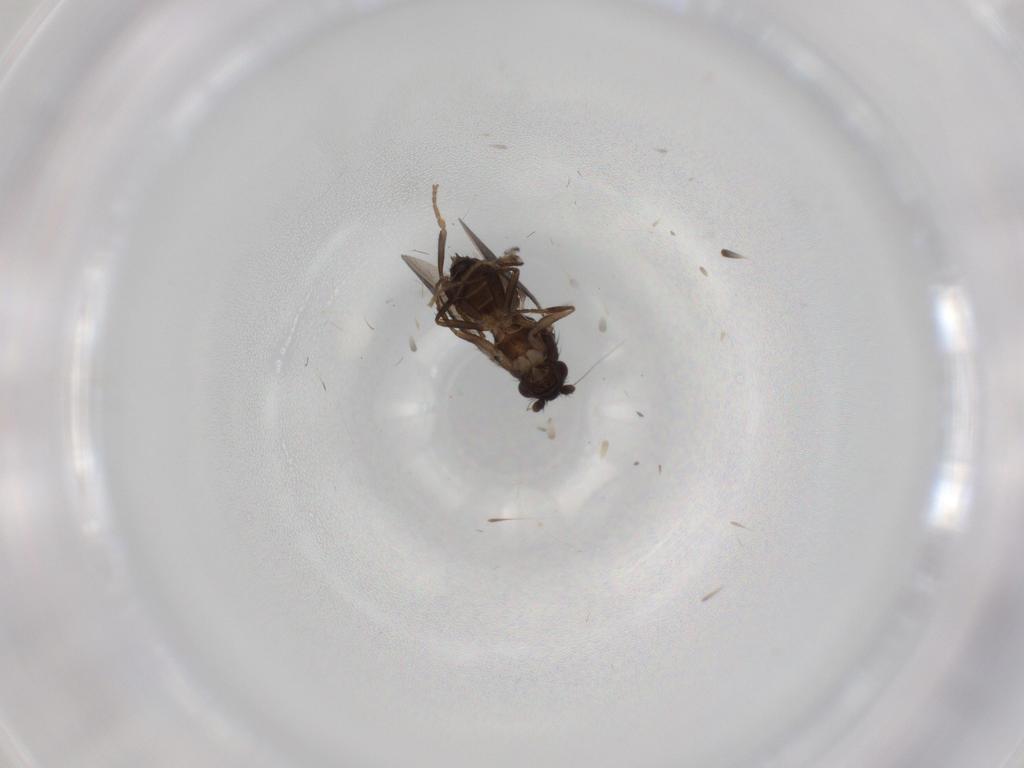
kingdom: Animalia
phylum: Arthropoda
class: Insecta
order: Diptera
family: Sphaeroceridae
